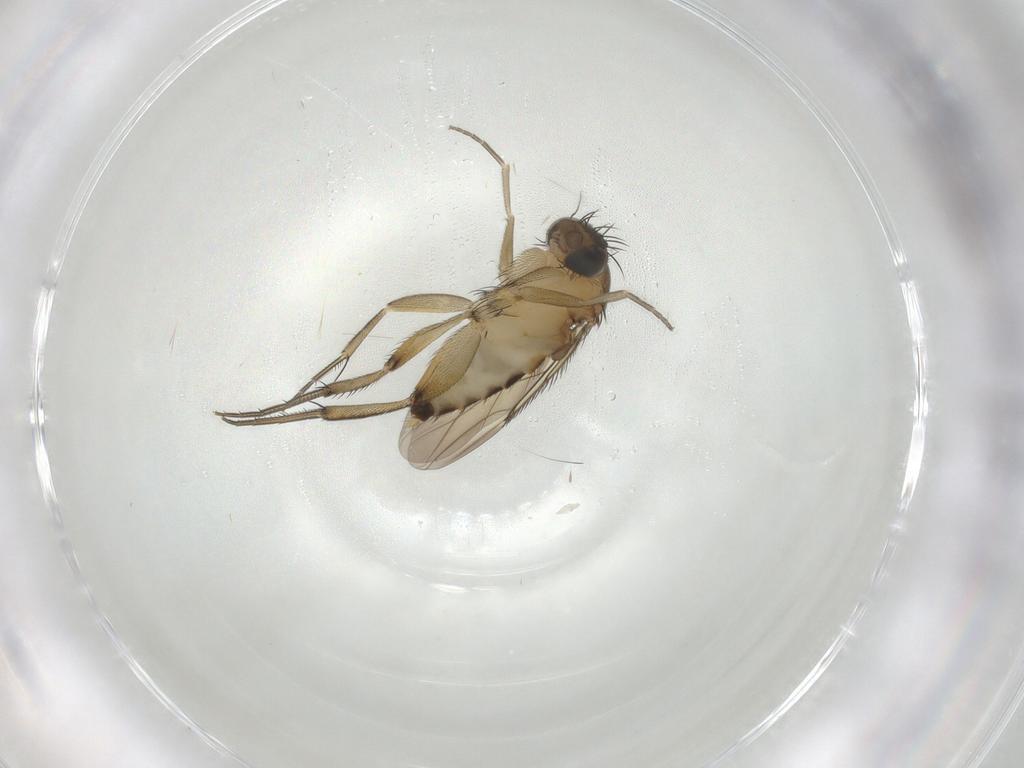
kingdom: Animalia
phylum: Arthropoda
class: Insecta
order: Diptera
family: Phoridae
